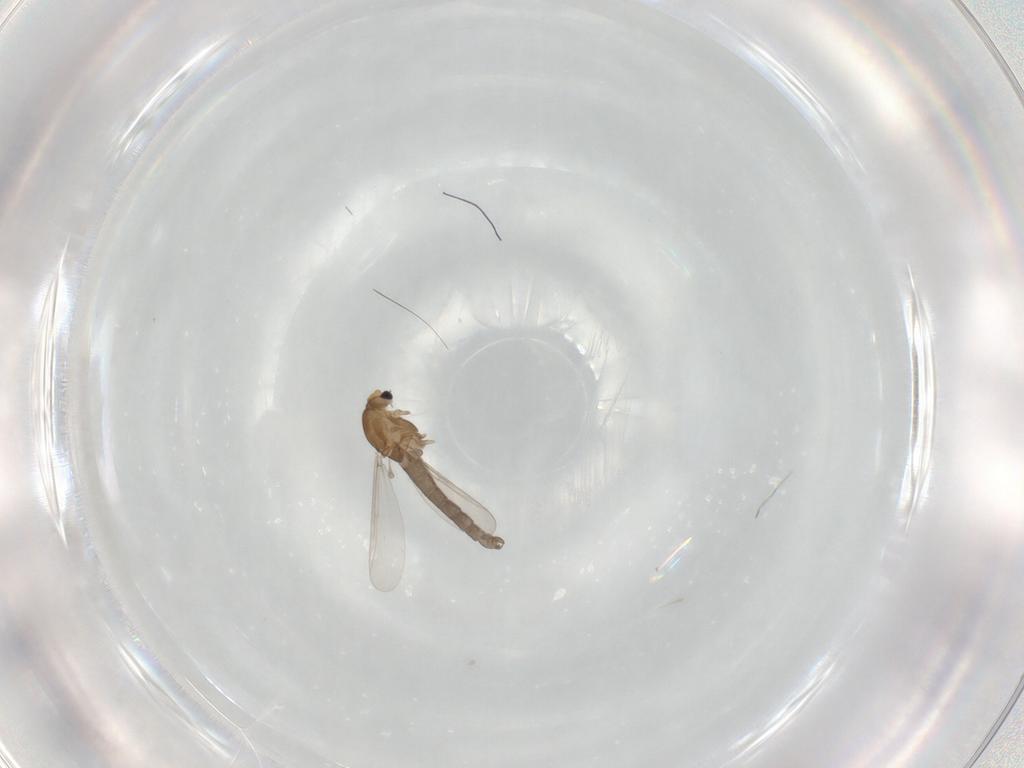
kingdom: Animalia
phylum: Arthropoda
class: Insecta
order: Diptera
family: Chironomidae
